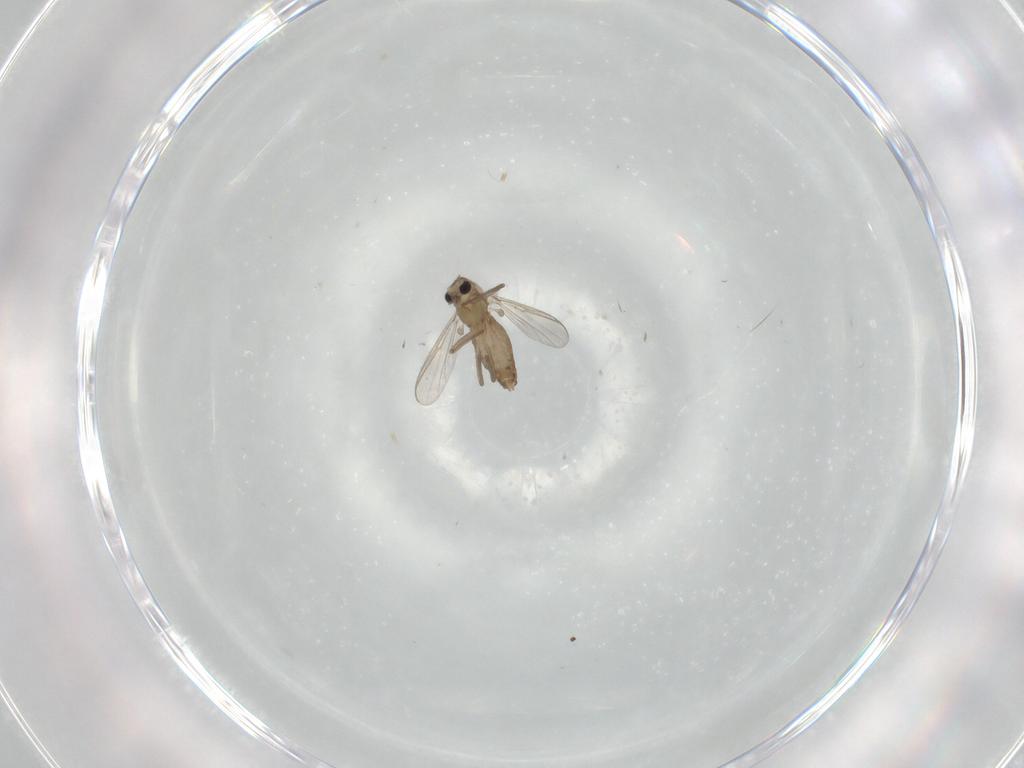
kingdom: Animalia
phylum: Arthropoda
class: Insecta
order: Diptera
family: Chironomidae
